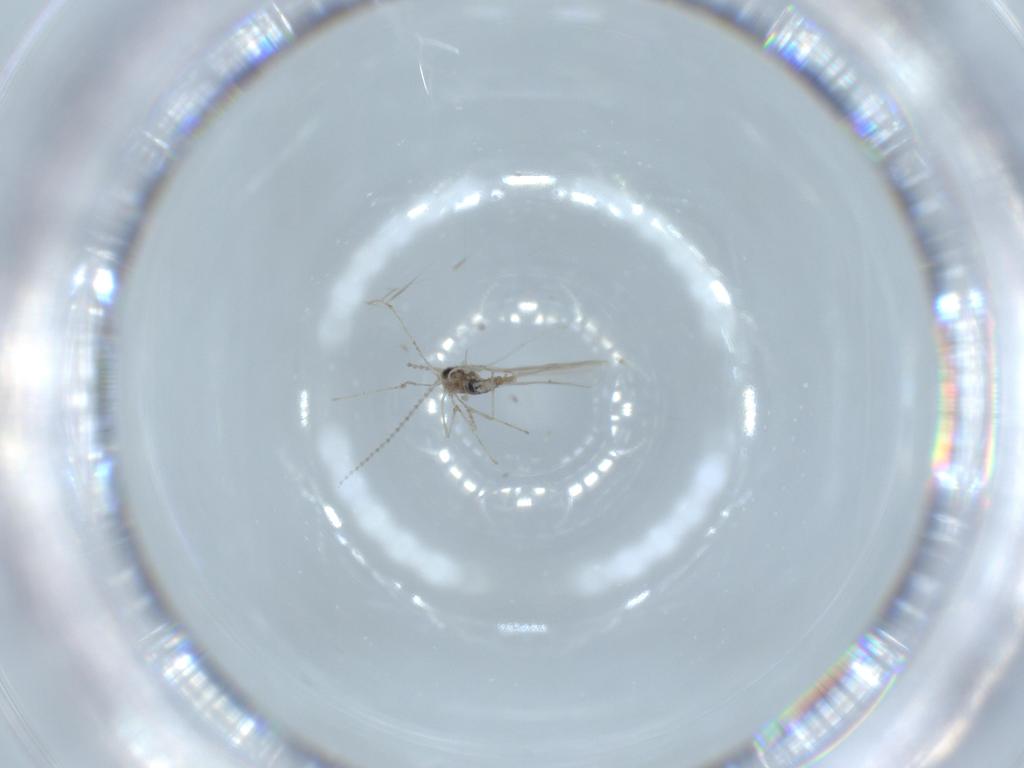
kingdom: Animalia
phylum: Arthropoda
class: Insecta
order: Diptera
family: Cecidomyiidae
